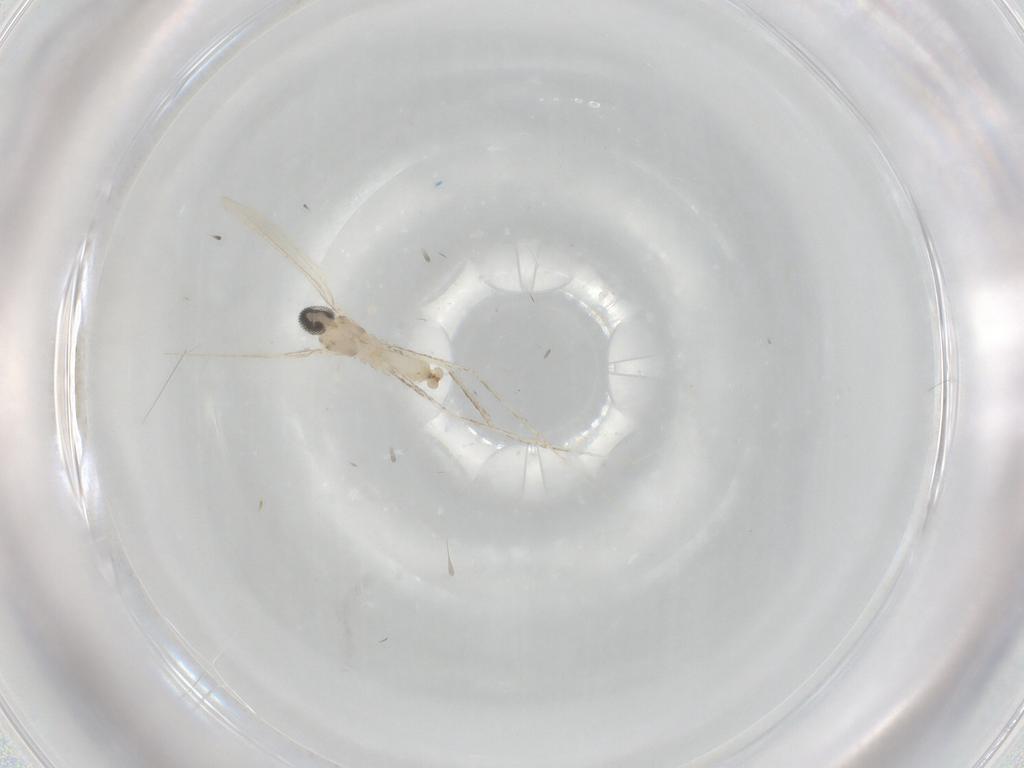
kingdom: Animalia
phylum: Arthropoda
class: Insecta
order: Diptera
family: Cecidomyiidae
